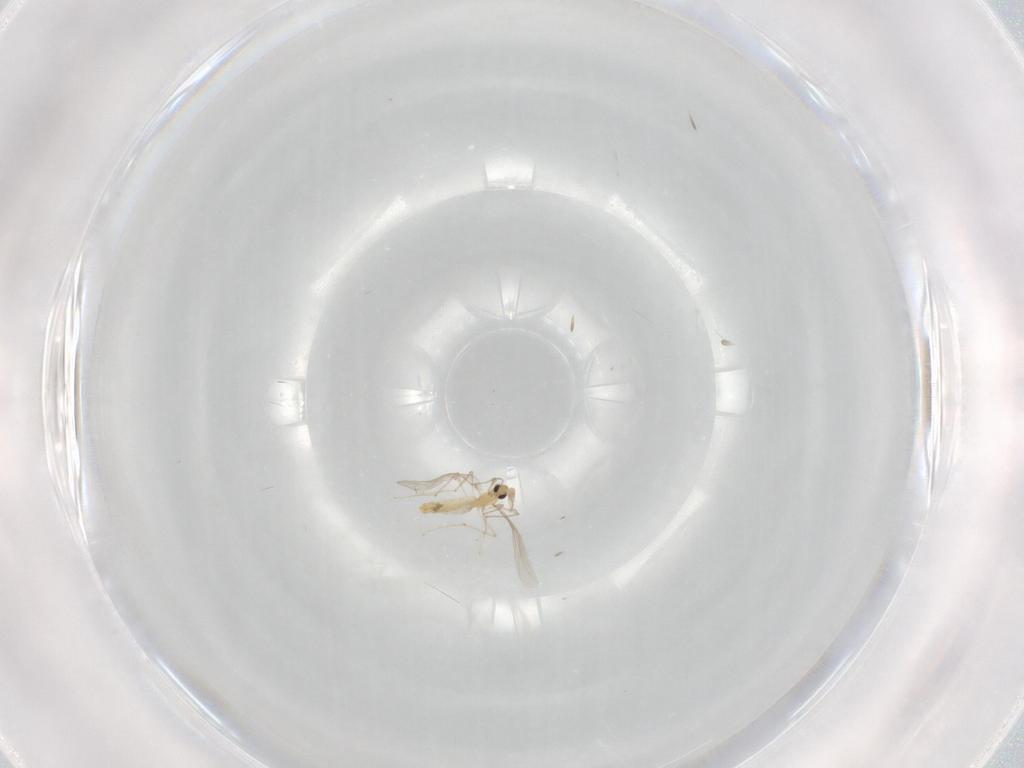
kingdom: Animalia
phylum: Arthropoda
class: Insecta
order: Diptera
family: Chironomidae
